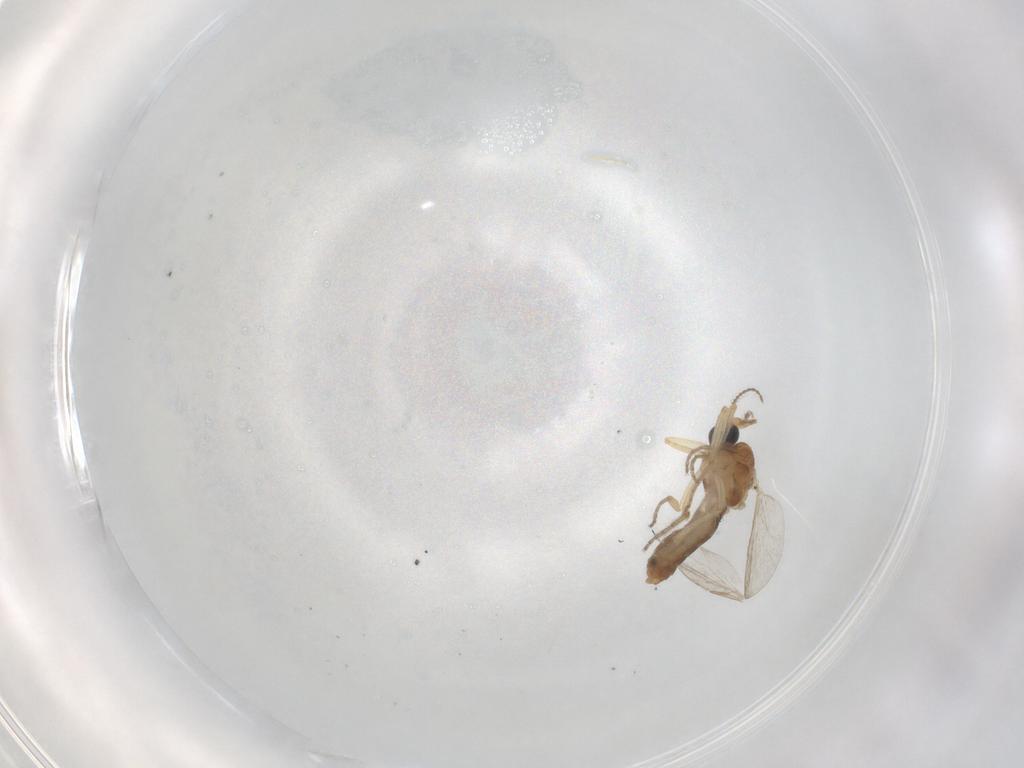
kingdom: Animalia
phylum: Arthropoda
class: Insecta
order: Diptera
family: Ceratopogonidae
